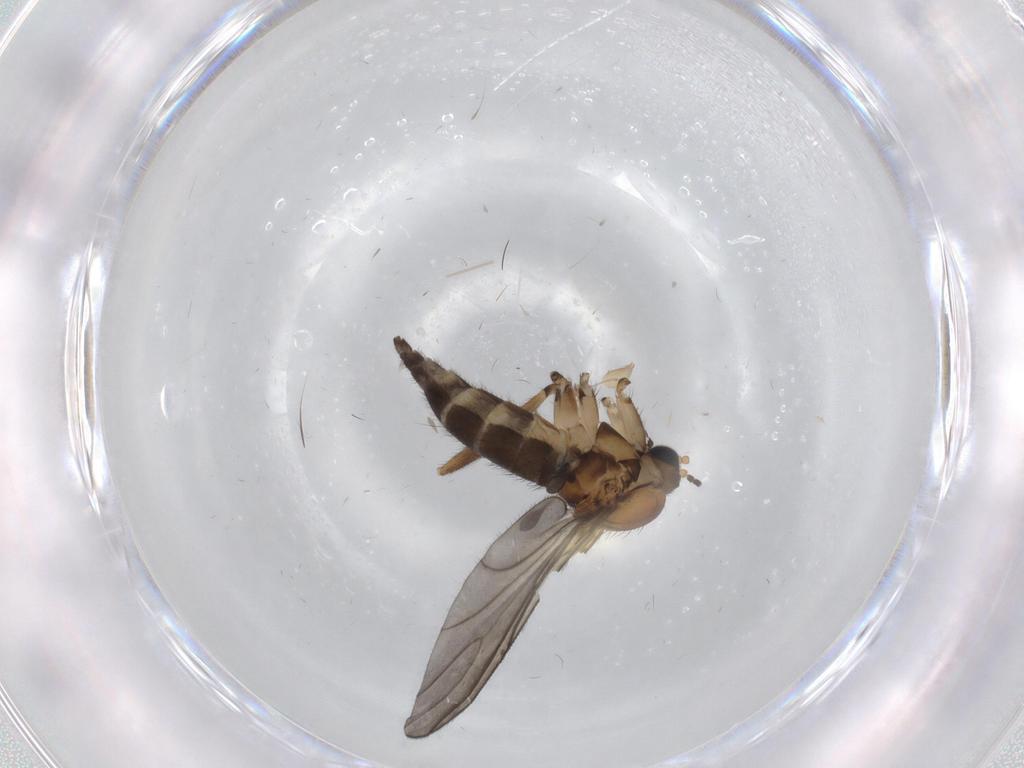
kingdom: Animalia
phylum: Arthropoda
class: Insecta
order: Diptera
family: Sciaridae
